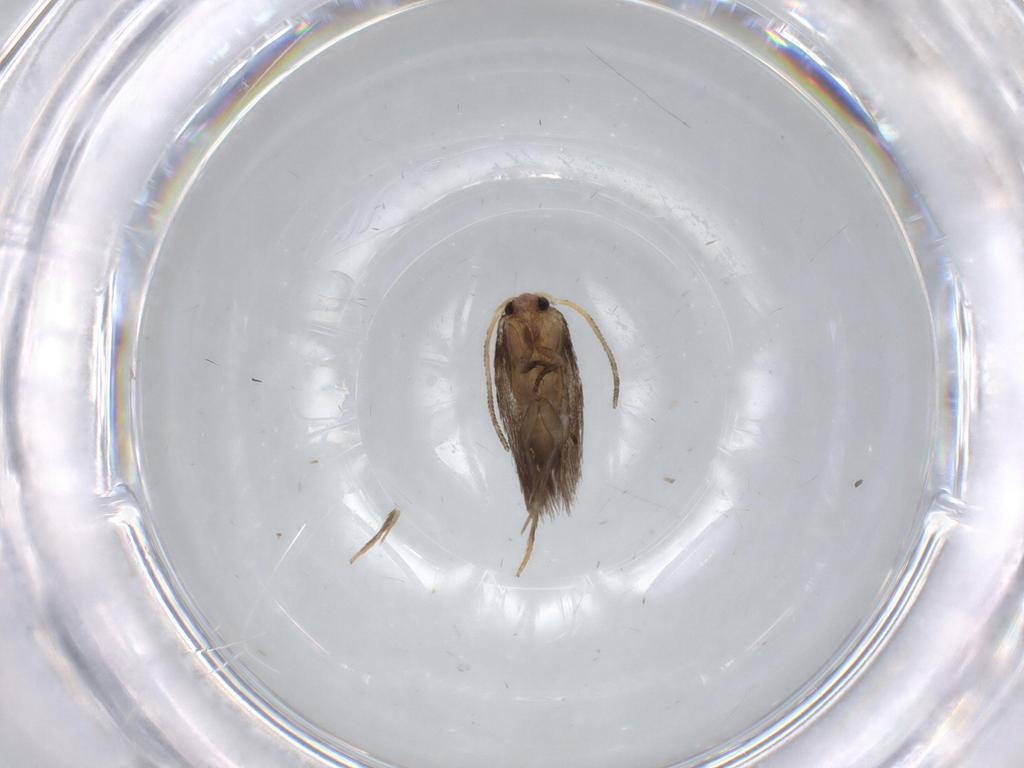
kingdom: Animalia
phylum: Arthropoda
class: Insecta
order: Lepidoptera
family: Nepticulidae
